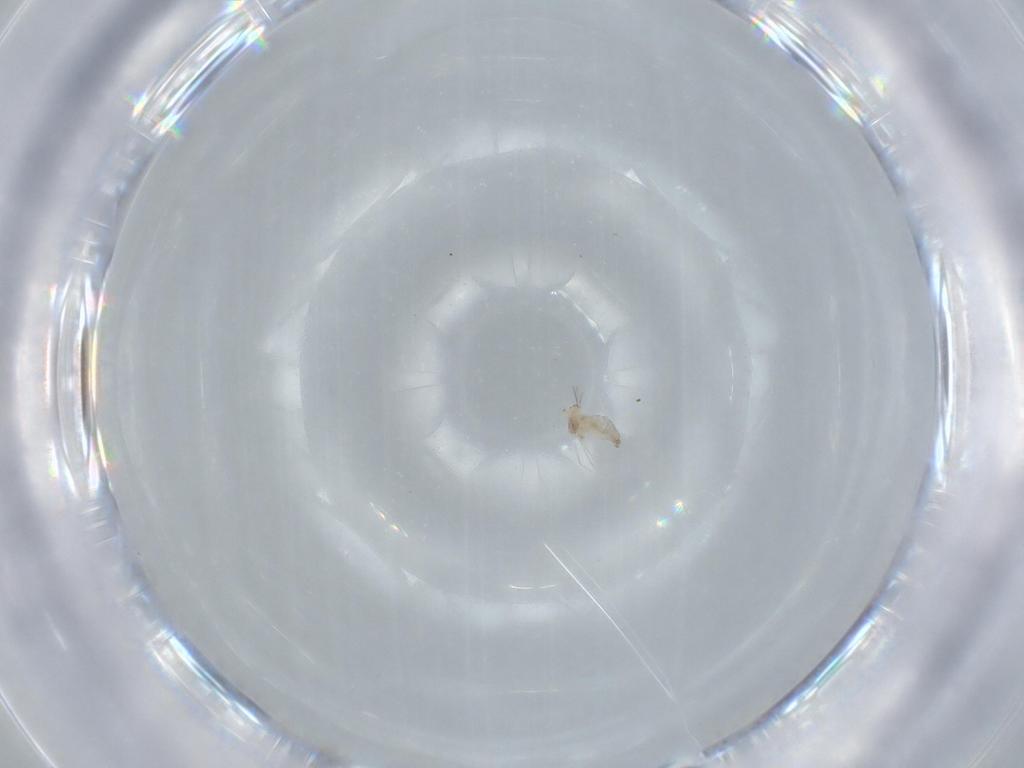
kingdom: Animalia
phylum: Arthropoda
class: Insecta
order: Diptera
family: Cecidomyiidae
